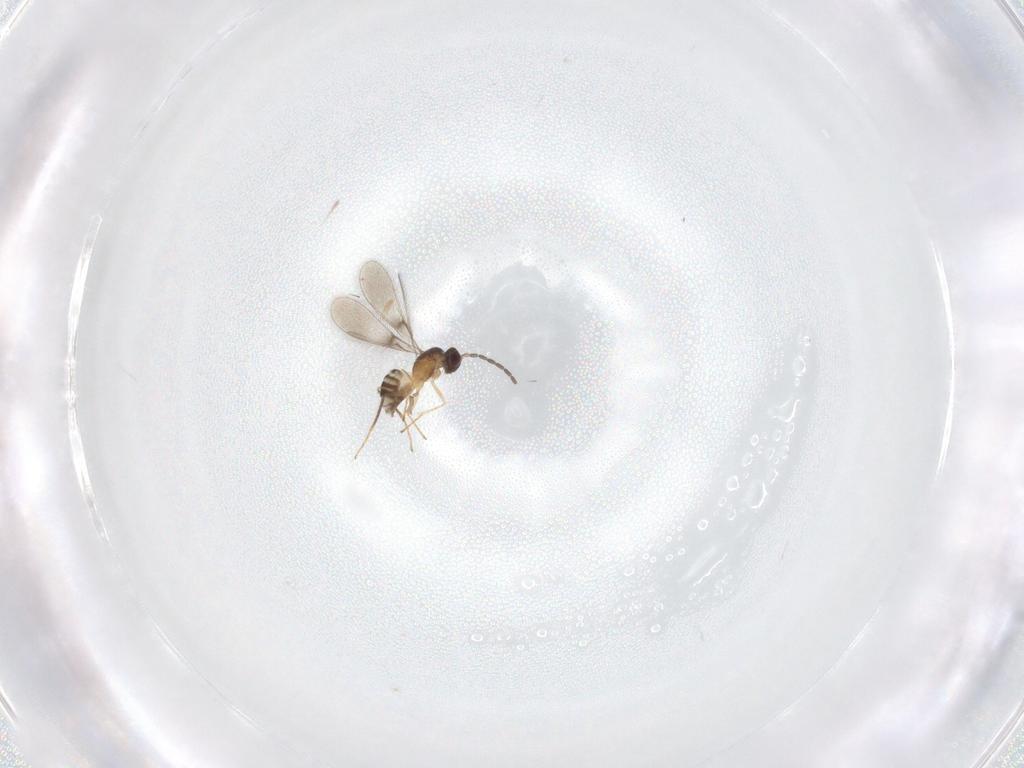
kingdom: Animalia
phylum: Arthropoda
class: Insecta
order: Hymenoptera
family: Mymaridae
